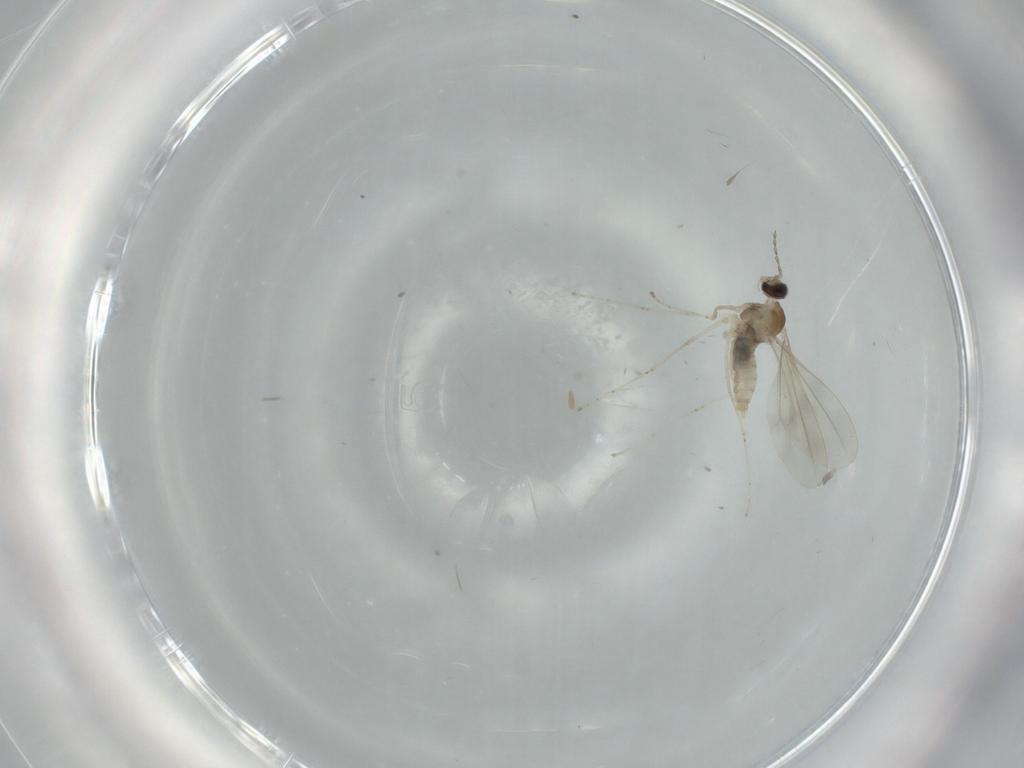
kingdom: Animalia
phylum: Arthropoda
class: Insecta
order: Diptera
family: Cecidomyiidae
